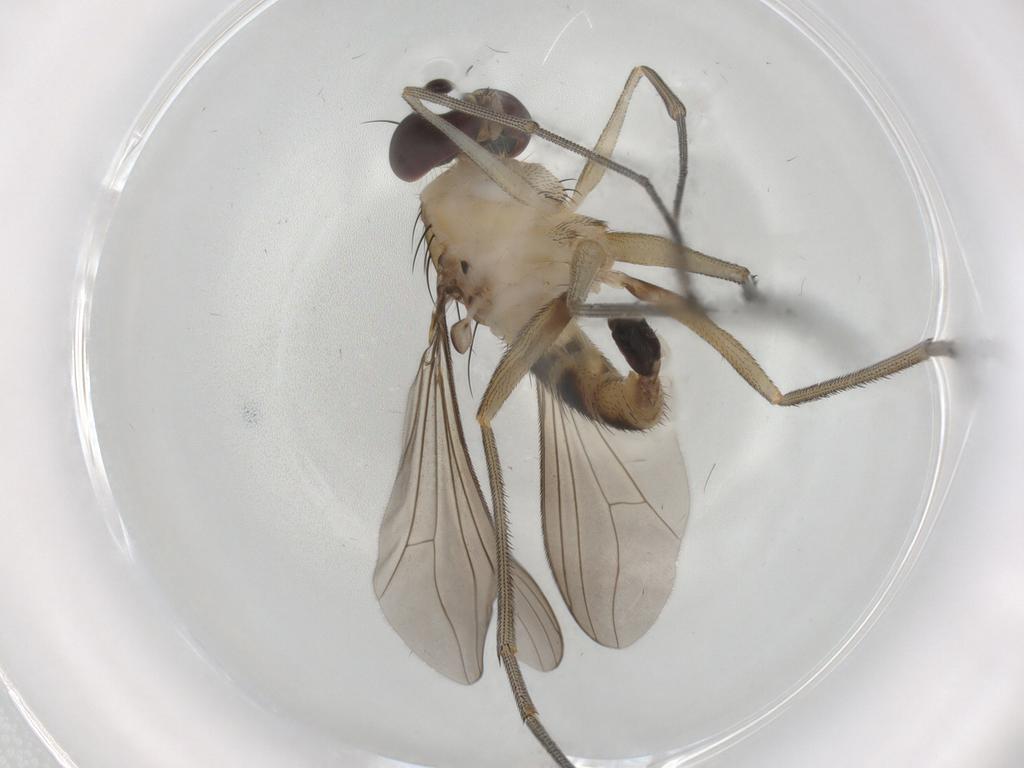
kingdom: Animalia
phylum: Arthropoda
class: Insecta
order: Diptera
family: Dolichopodidae
